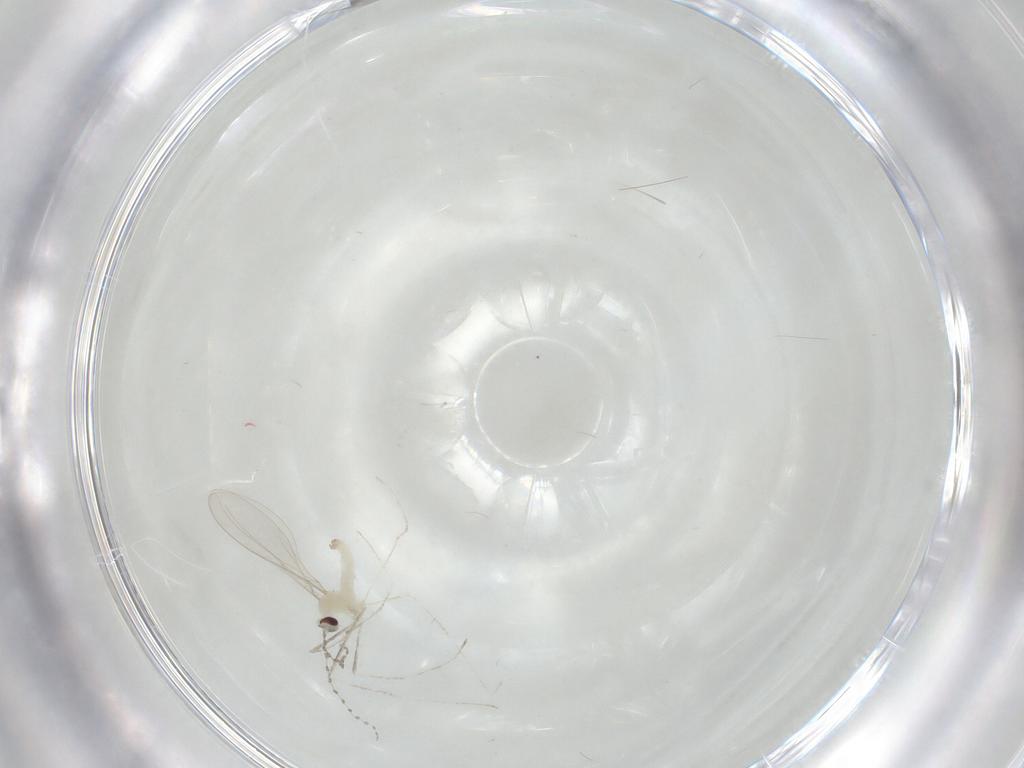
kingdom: Animalia
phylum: Arthropoda
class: Insecta
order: Diptera
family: Cecidomyiidae
